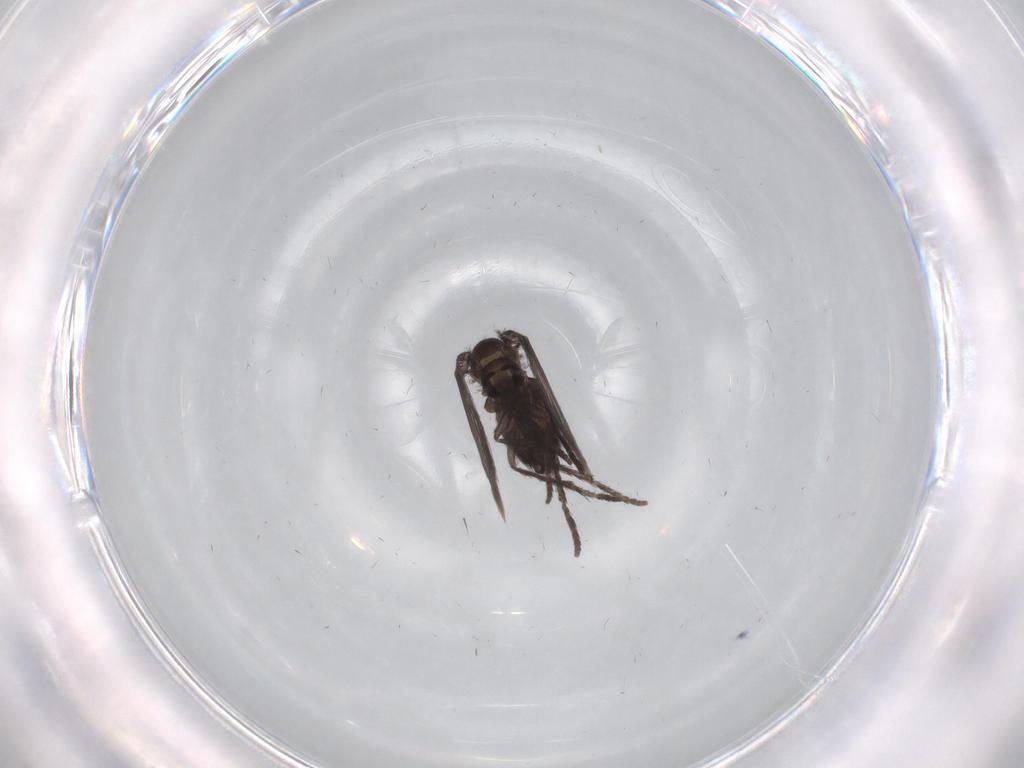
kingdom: Animalia
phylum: Arthropoda
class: Insecta
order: Diptera
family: Psychodidae
